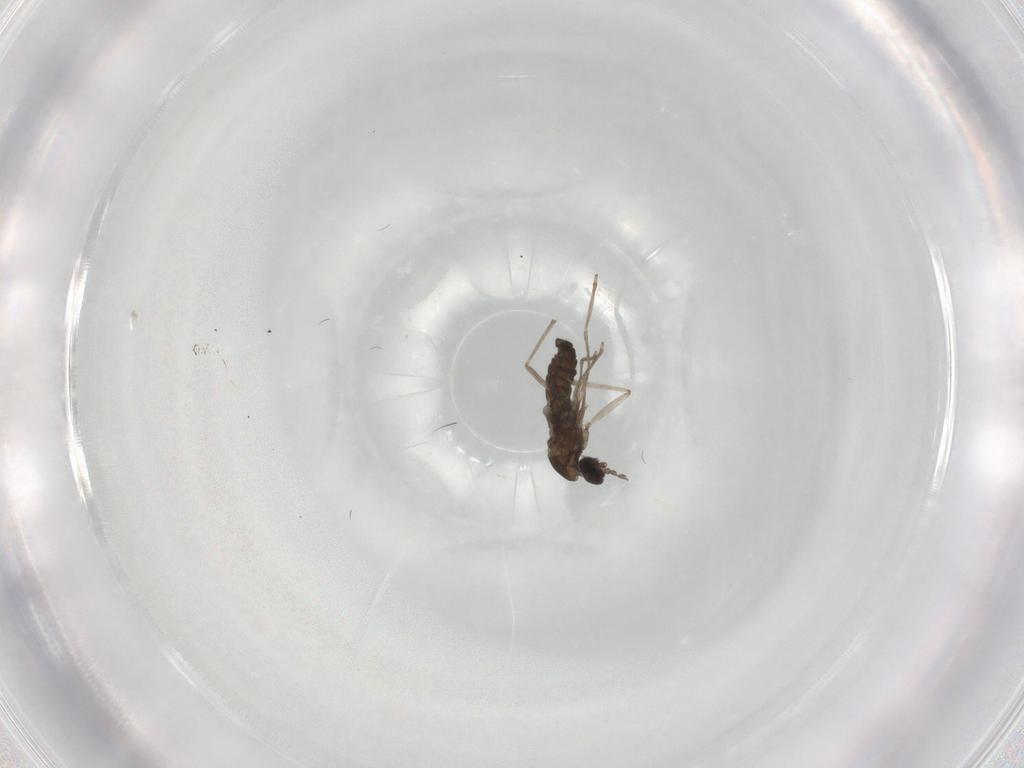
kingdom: Animalia
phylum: Arthropoda
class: Insecta
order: Diptera
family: Cecidomyiidae
